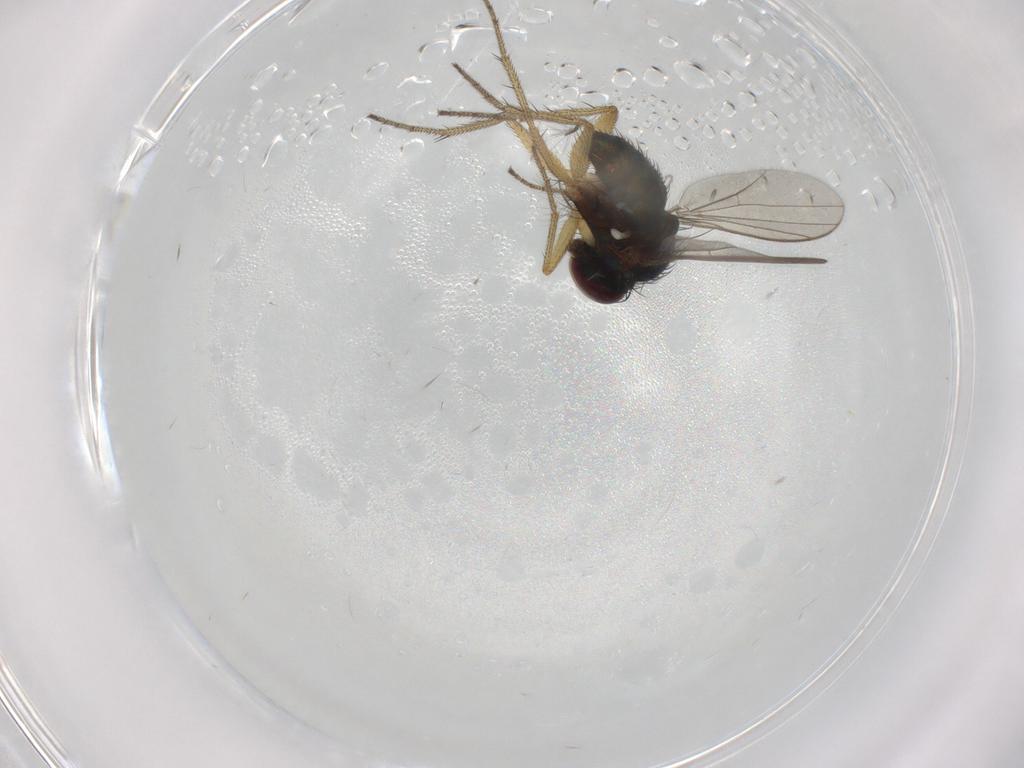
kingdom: Animalia
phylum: Arthropoda
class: Insecta
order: Diptera
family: Chironomidae
